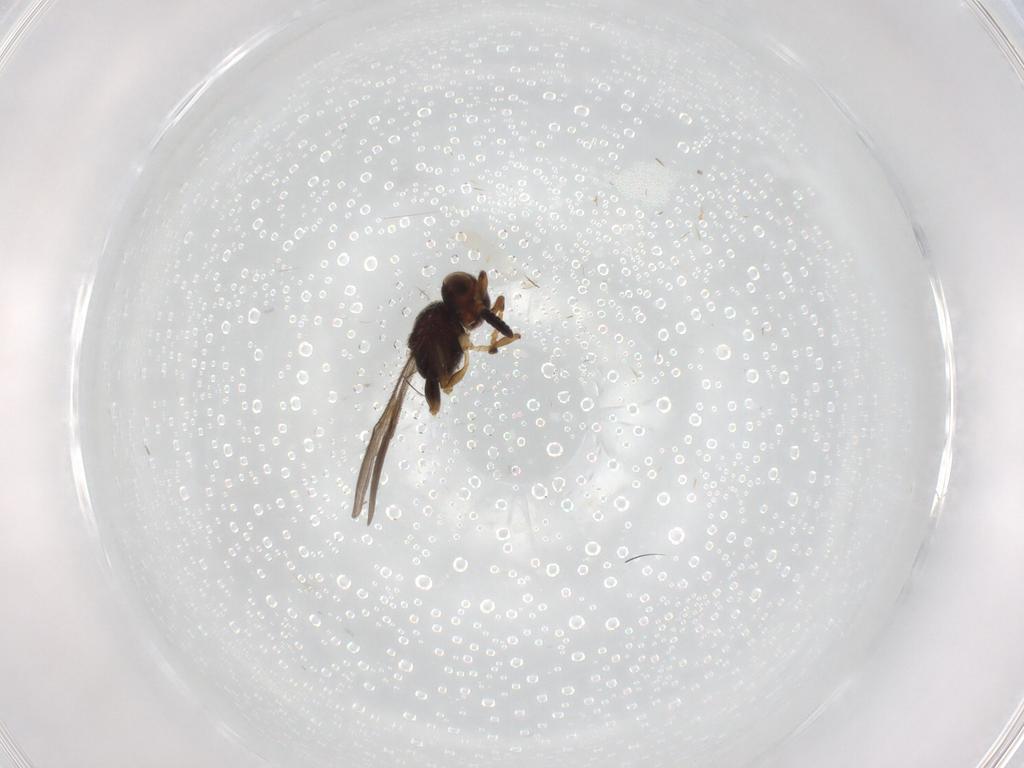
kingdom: Animalia
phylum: Arthropoda
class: Insecta
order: Hymenoptera
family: Scelionidae
